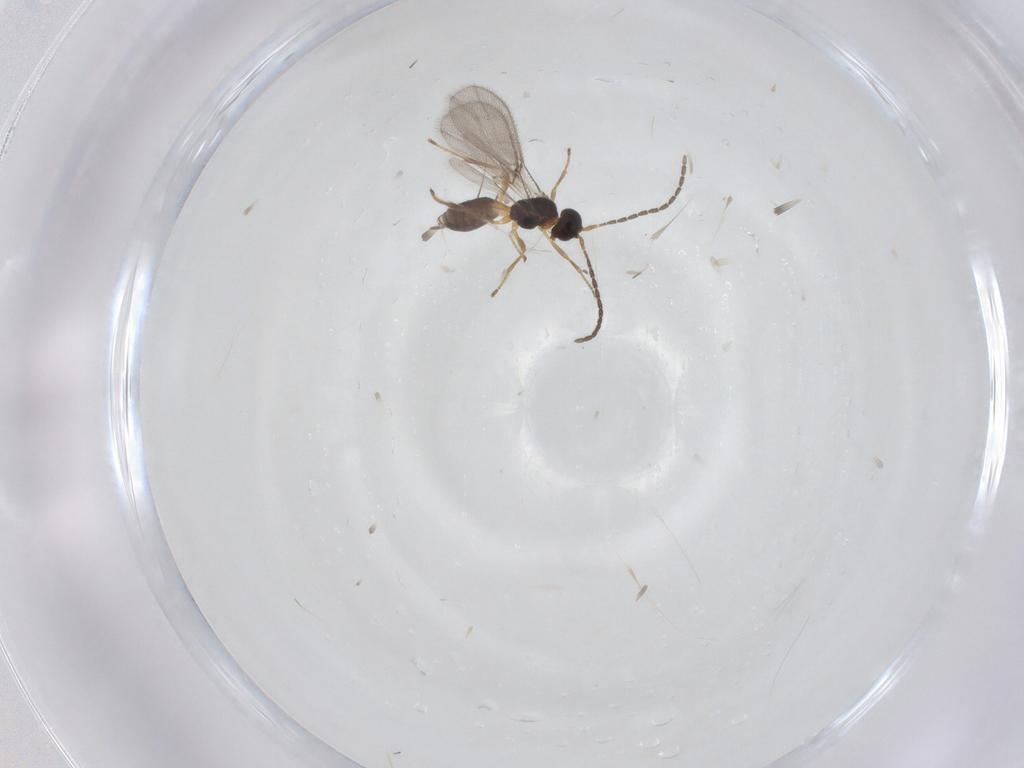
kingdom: Animalia
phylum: Arthropoda
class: Insecta
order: Hymenoptera
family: Braconidae
